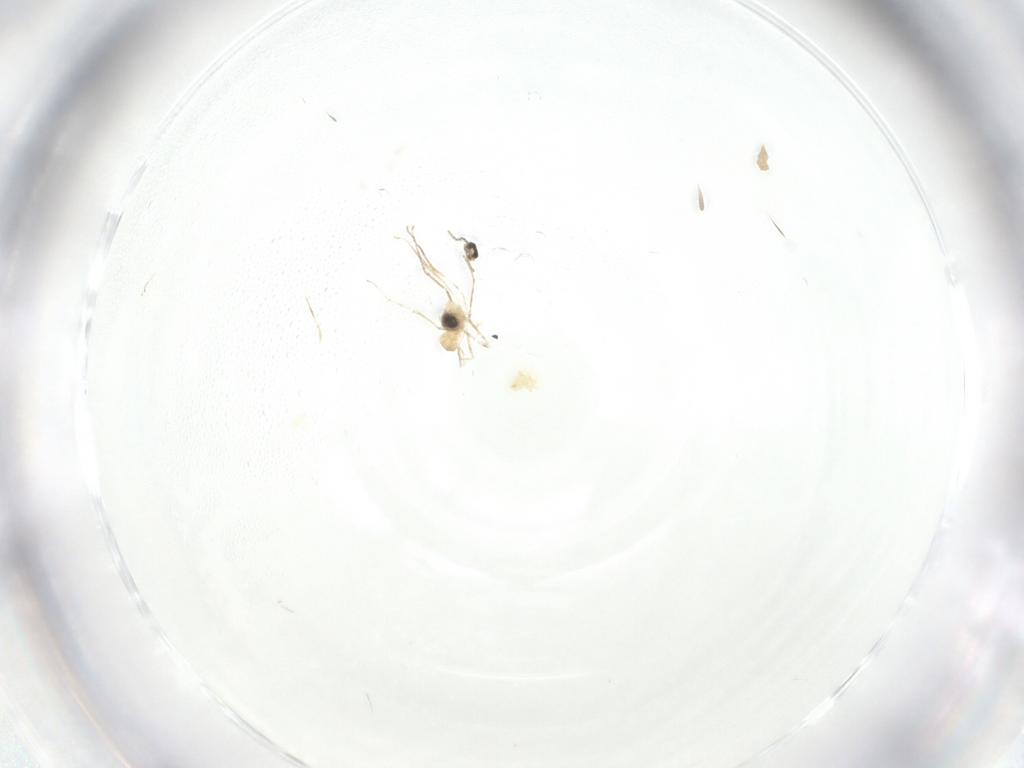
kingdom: Animalia
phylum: Arthropoda
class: Insecta
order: Diptera
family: Cecidomyiidae
